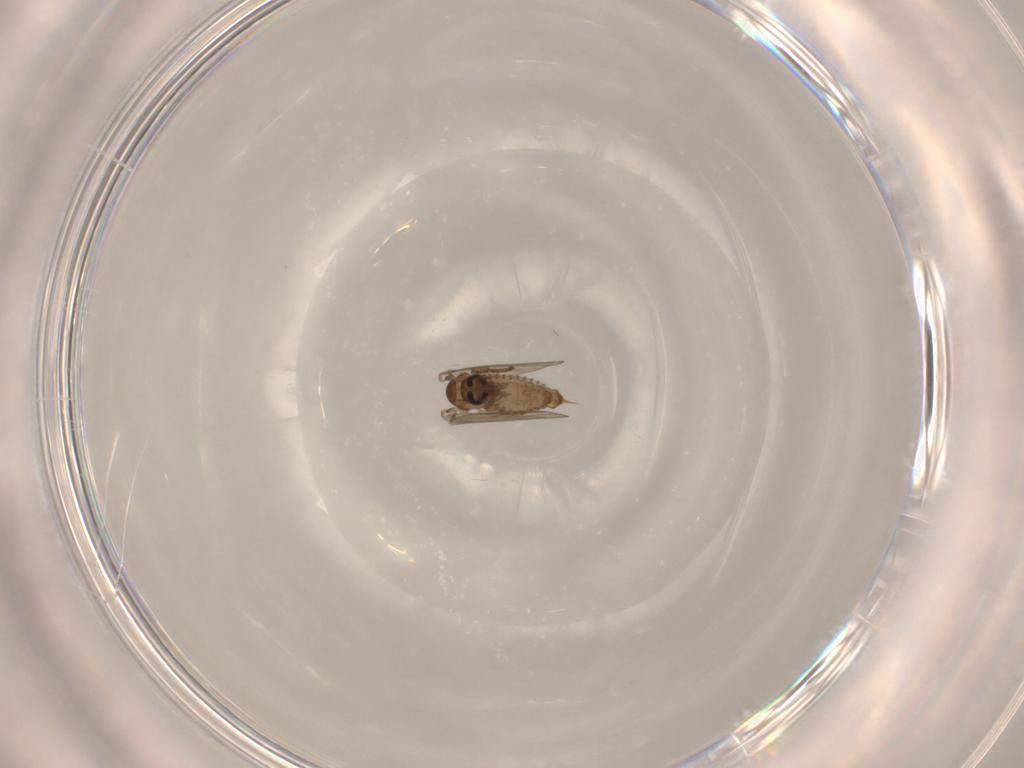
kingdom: Animalia
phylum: Arthropoda
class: Insecta
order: Diptera
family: Psychodidae
